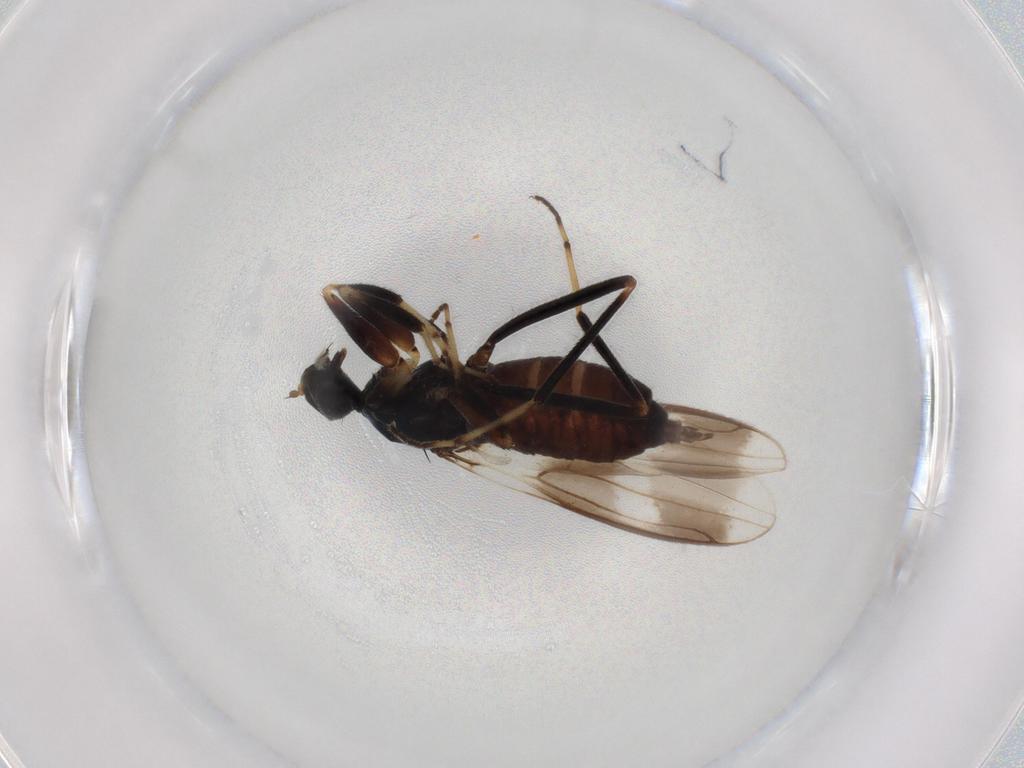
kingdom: Animalia
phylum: Arthropoda
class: Insecta
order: Diptera
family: Hybotidae
